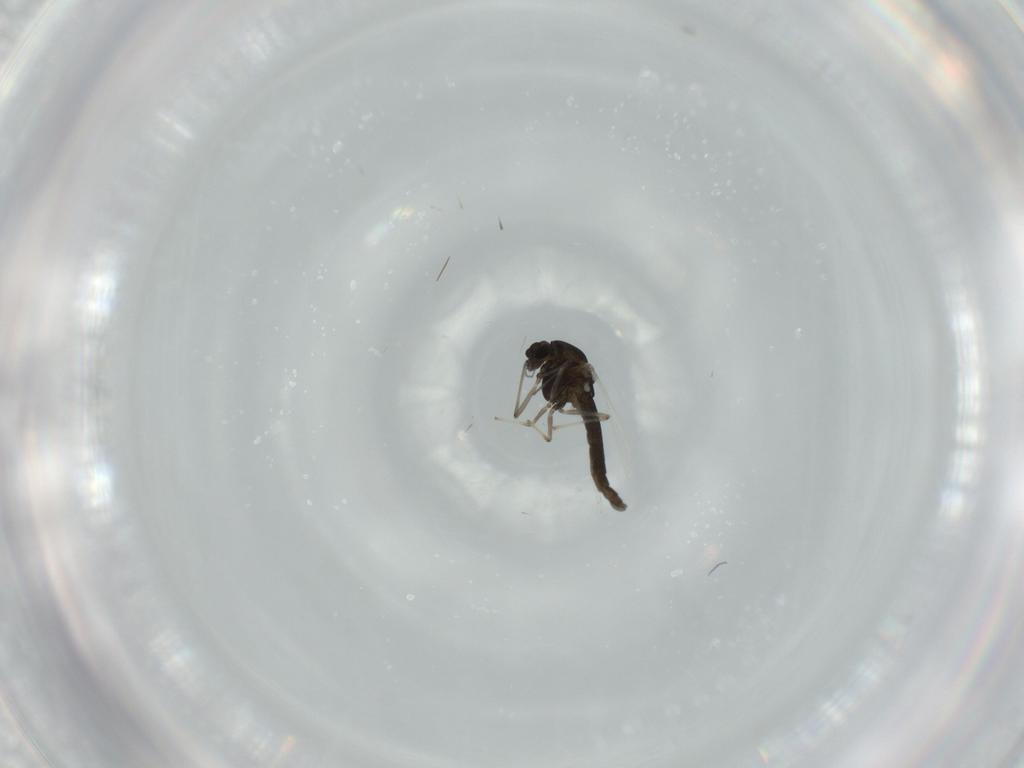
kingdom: Animalia
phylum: Arthropoda
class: Insecta
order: Diptera
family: Chironomidae
